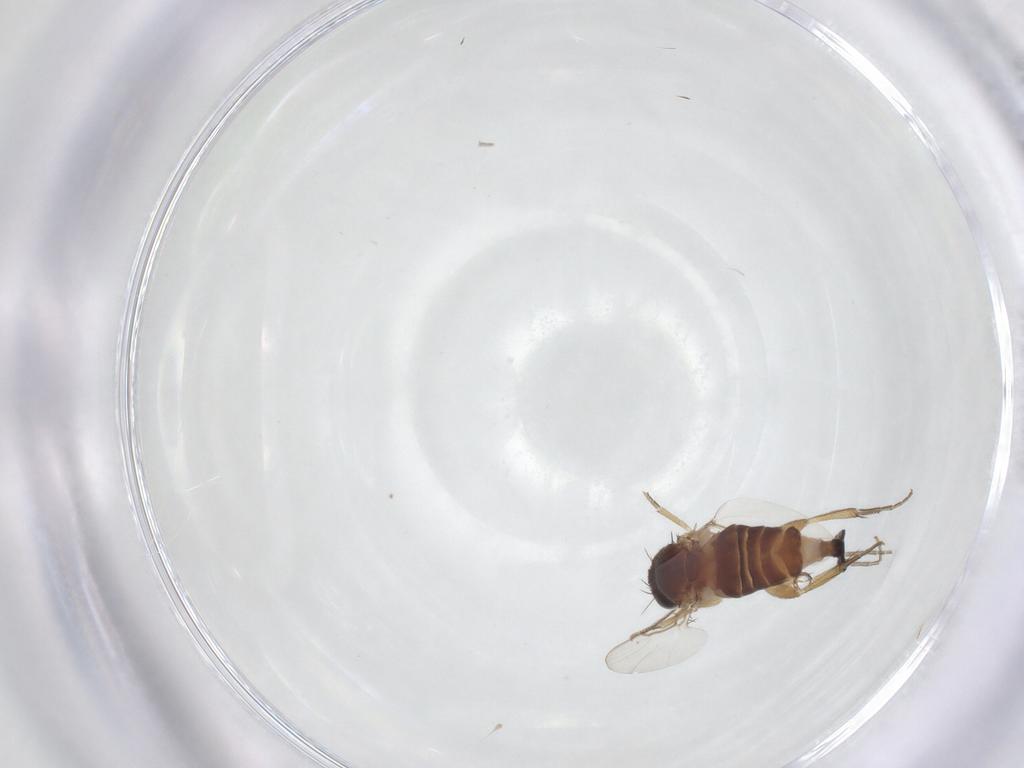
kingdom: Animalia
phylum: Arthropoda
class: Insecta
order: Diptera
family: Phoridae
